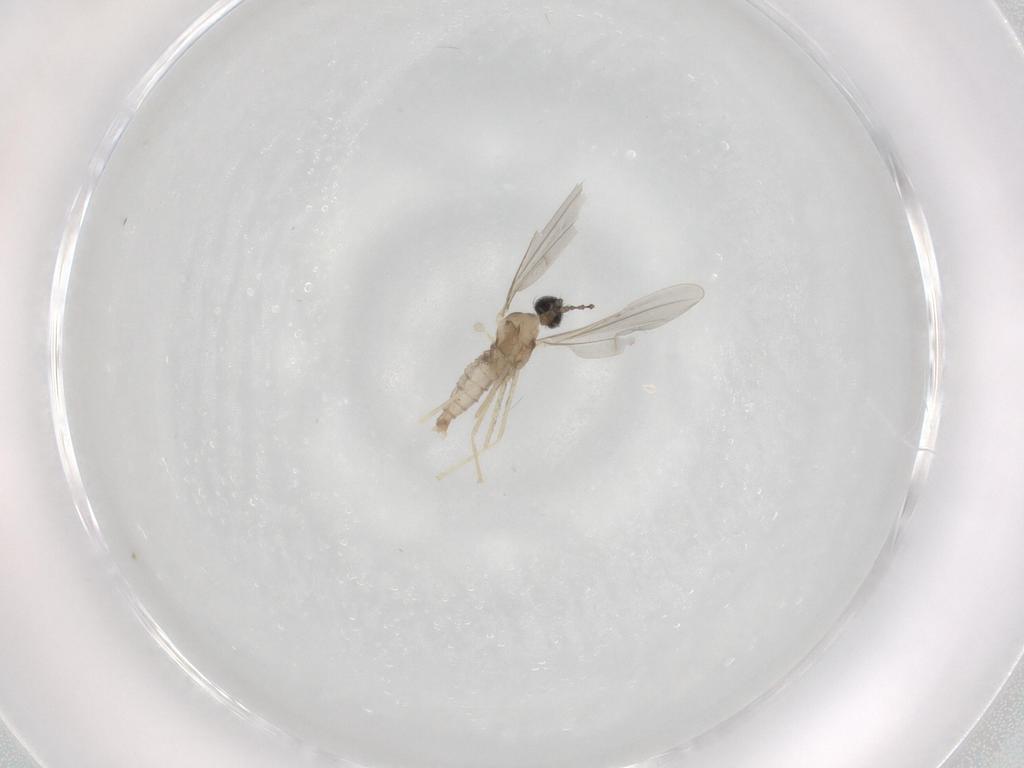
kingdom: Animalia
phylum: Arthropoda
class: Insecta
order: Diptera
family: Cecidomyiidae
